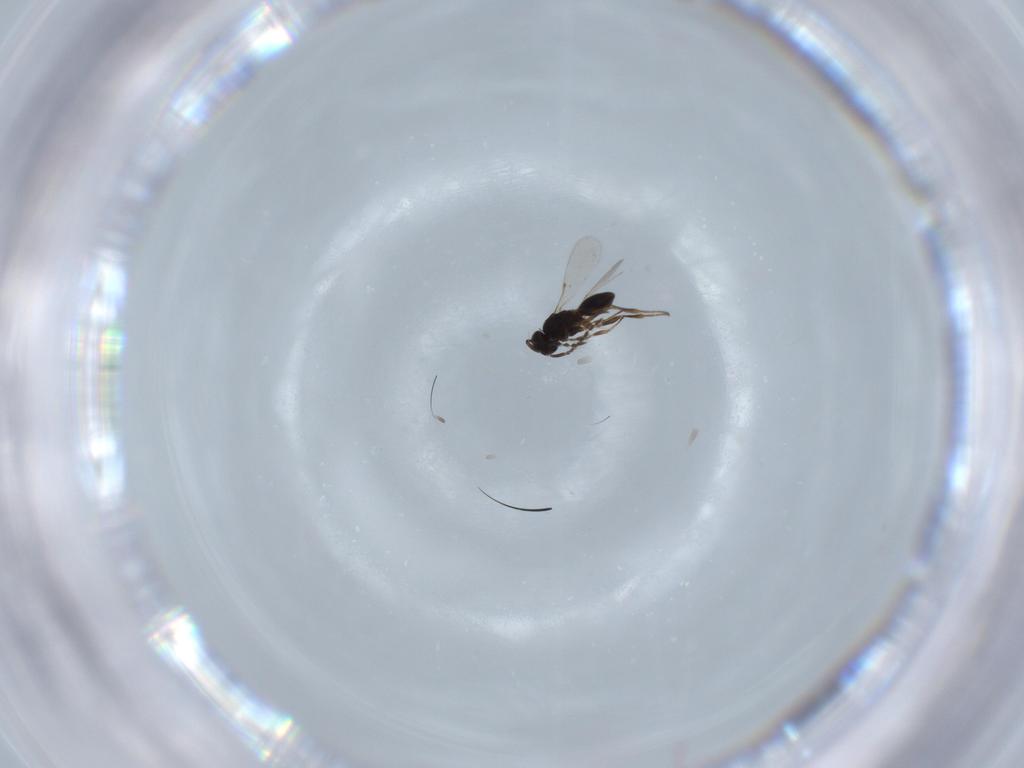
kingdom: Animalia
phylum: Arthropoda
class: Insecta
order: Hymenoptera
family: Platygastridae
